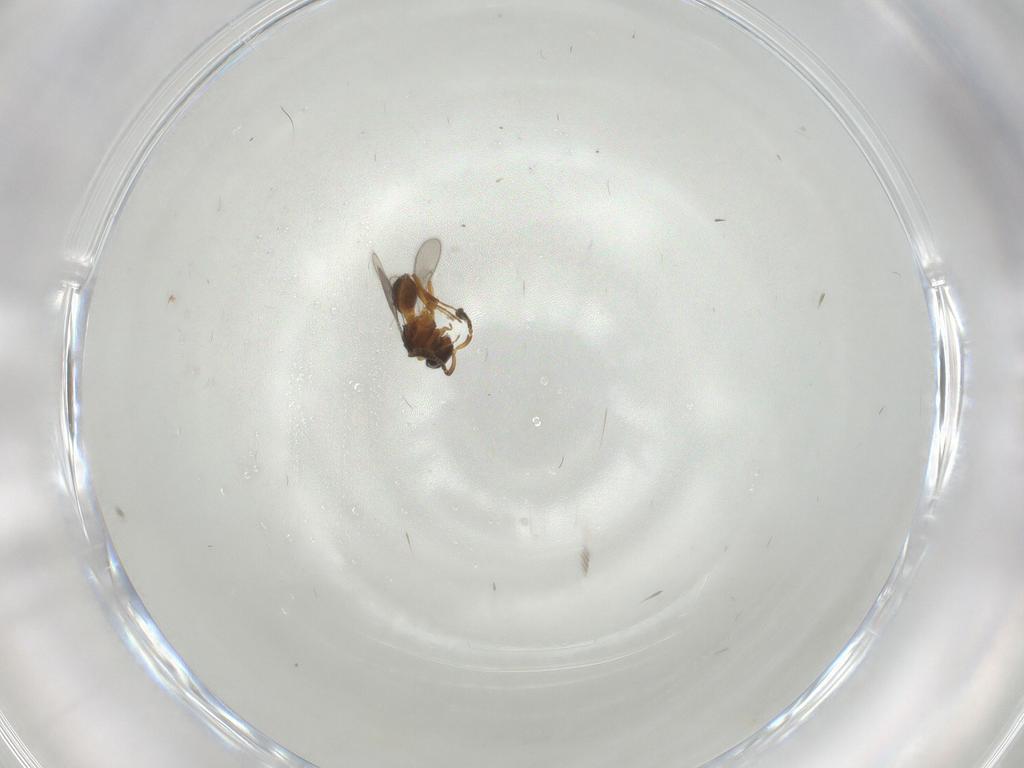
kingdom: Animalia
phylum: Arthropoda
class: Insecta
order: Hymenoptera
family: Scelionidae
